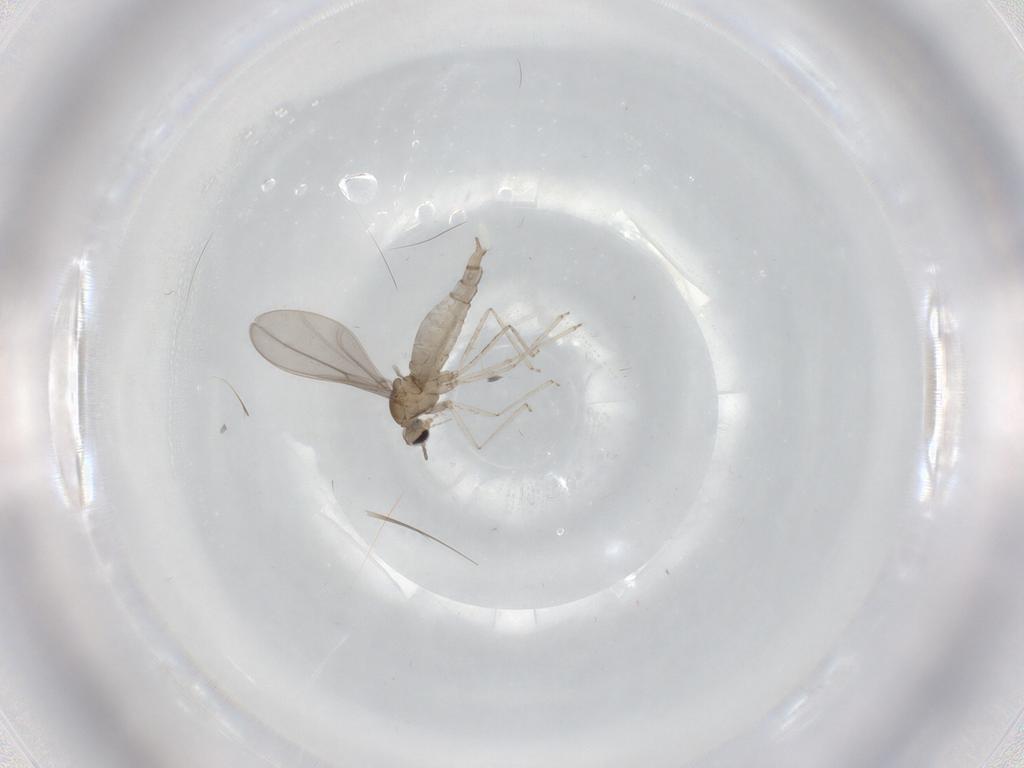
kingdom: Animalia
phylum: Arthropoda
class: Insecta
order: Diptera
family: Cecidomyiidae
